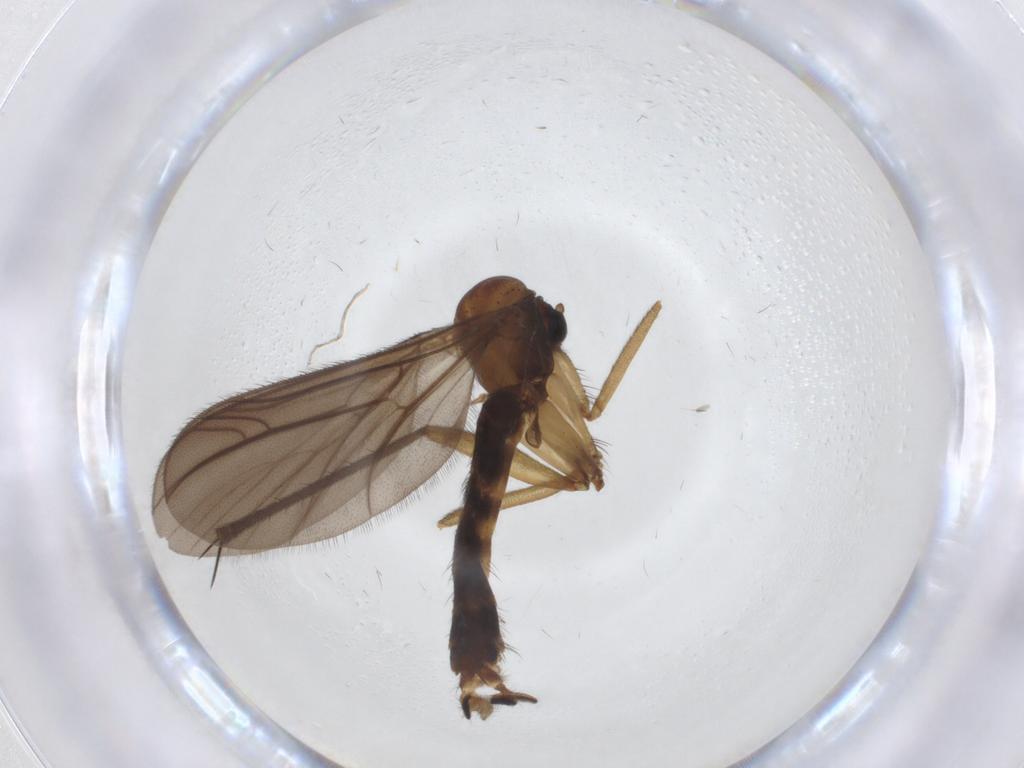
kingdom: Animalia
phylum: Arthropoda
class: Insecta
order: Diptera
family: Ditomyiidae
